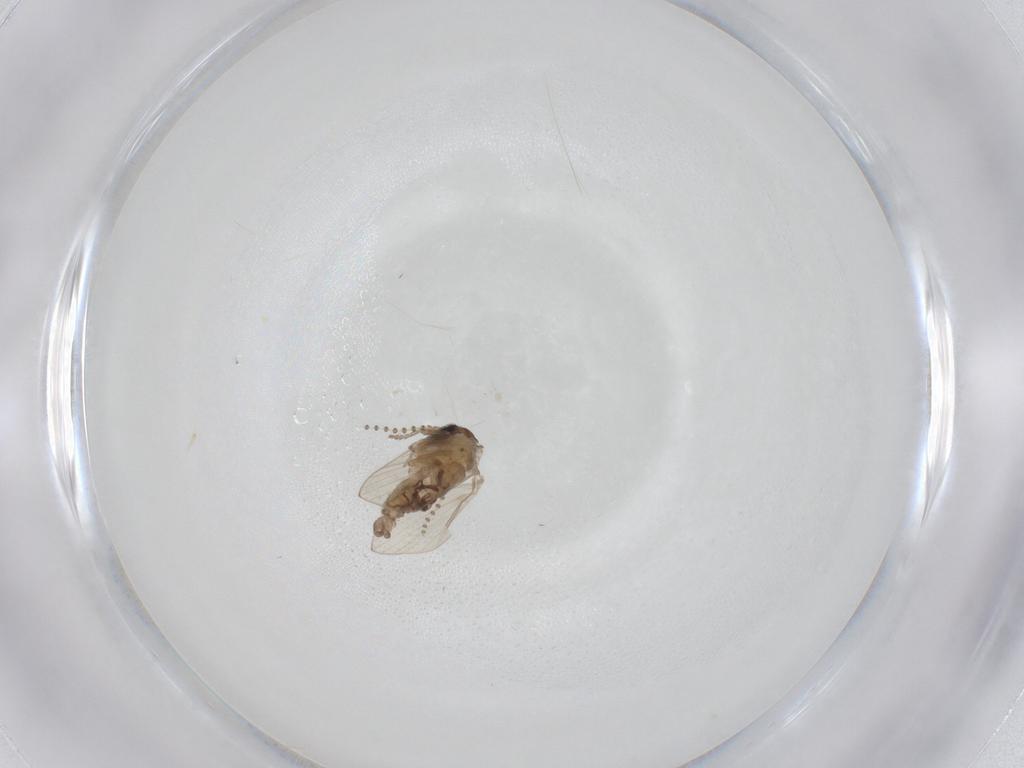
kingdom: Animalia
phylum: Arthropoda
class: Insecta
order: Diptera
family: Psychodidae
